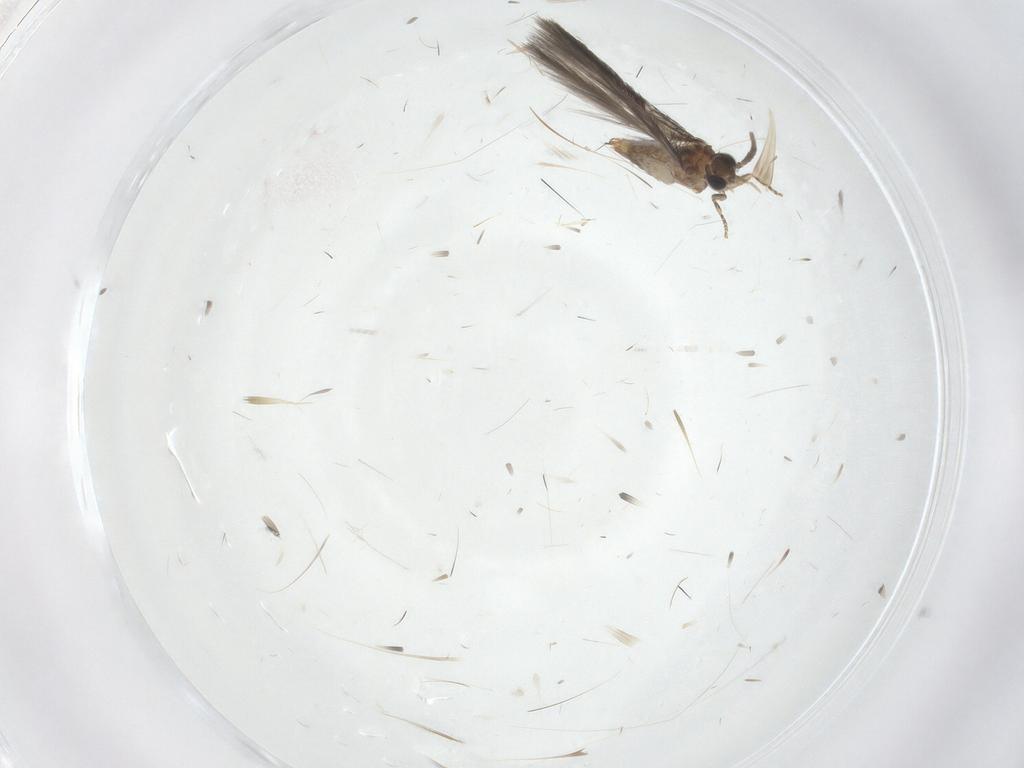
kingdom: Animalia
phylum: Arthropoda
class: Insecta
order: Trichoptera
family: Hydroptilidae
